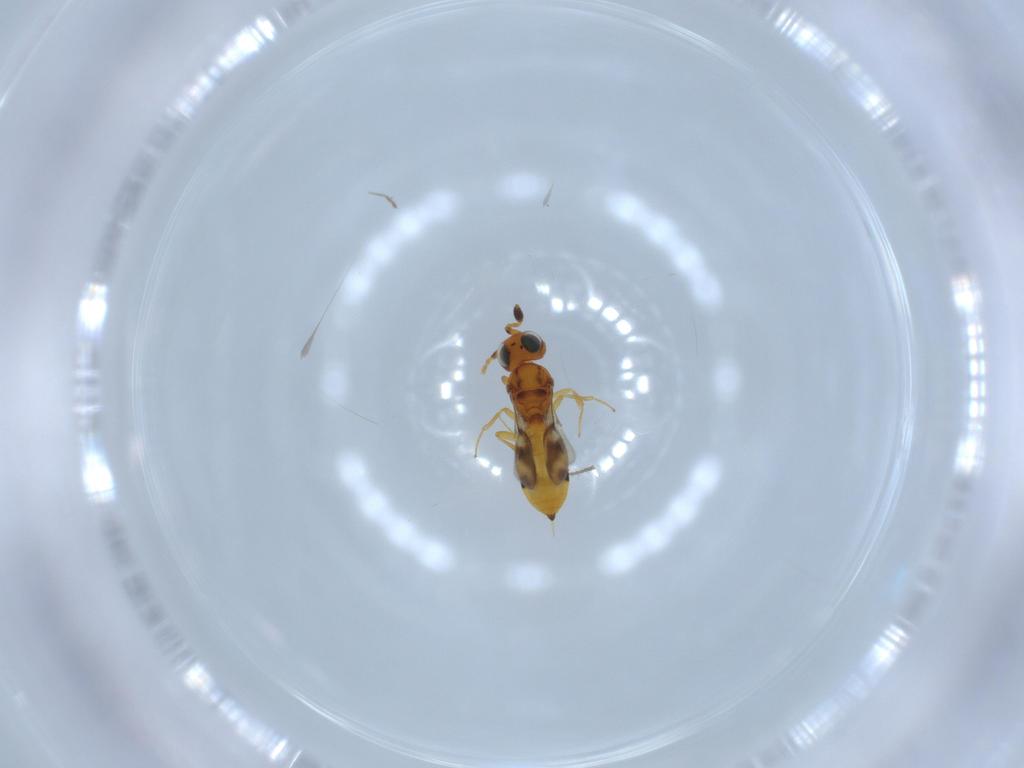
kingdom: Animalia
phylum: Arthropoda
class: Insecta
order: Hymenoptera
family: Scelionidae
